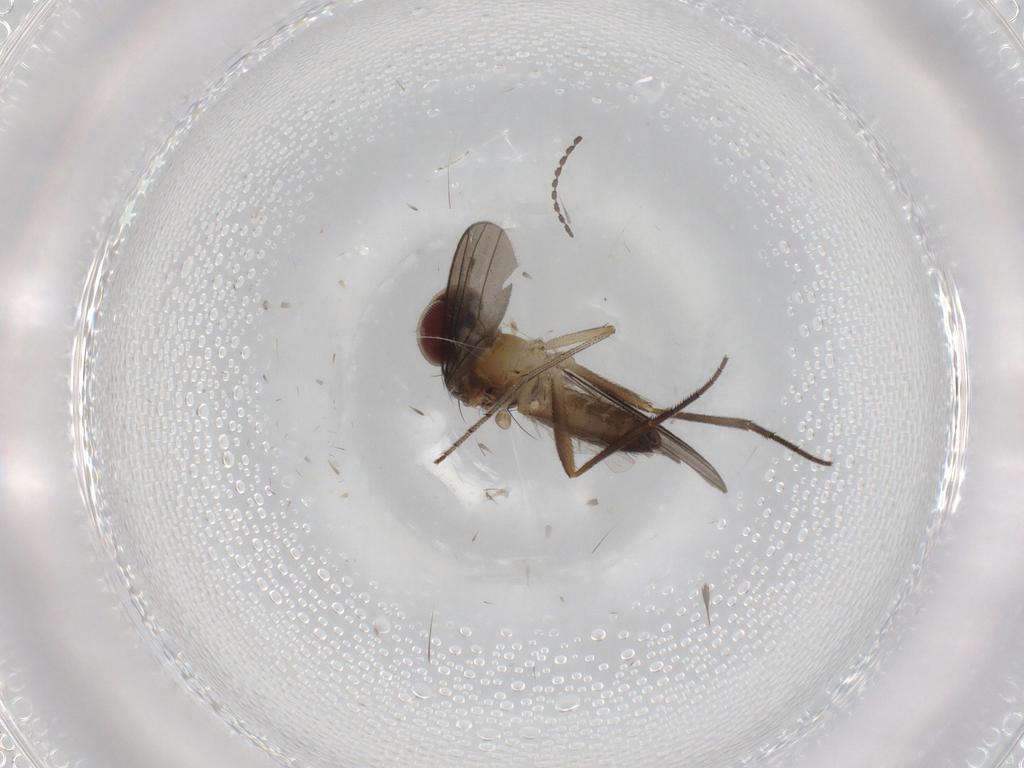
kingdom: Animalia
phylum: Arthropoda
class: Insecta
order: Diptera
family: Dolichopodidae
